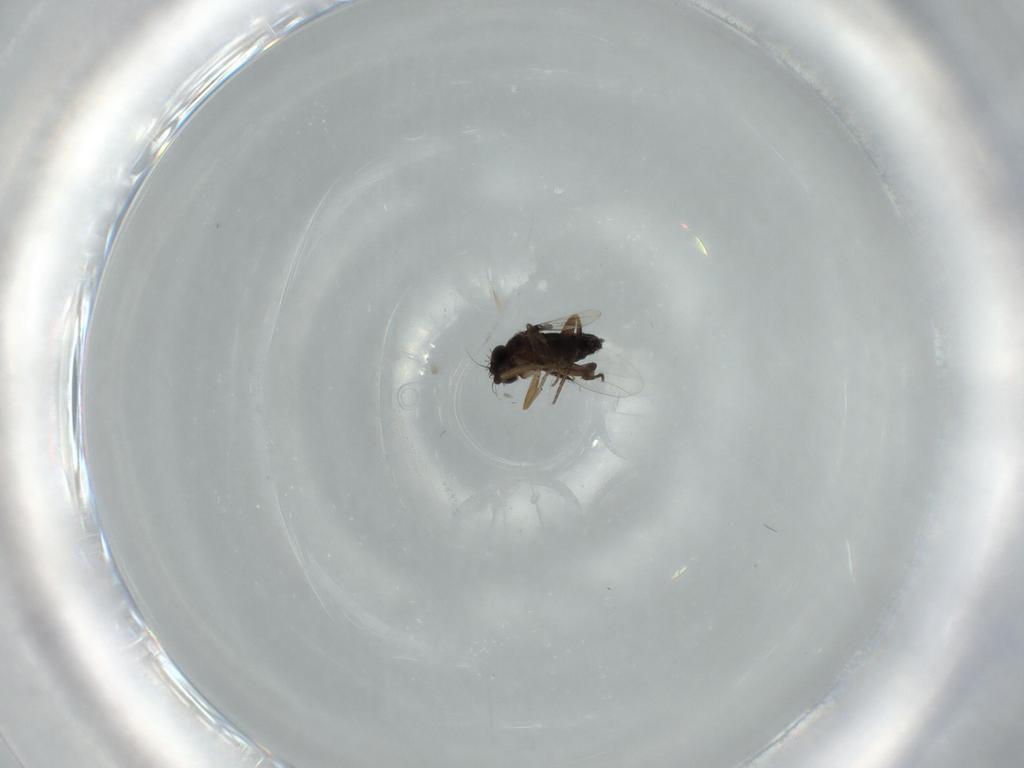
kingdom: Animalia
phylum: Arthropoda
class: Insecta
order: Diptera
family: Phoridae
